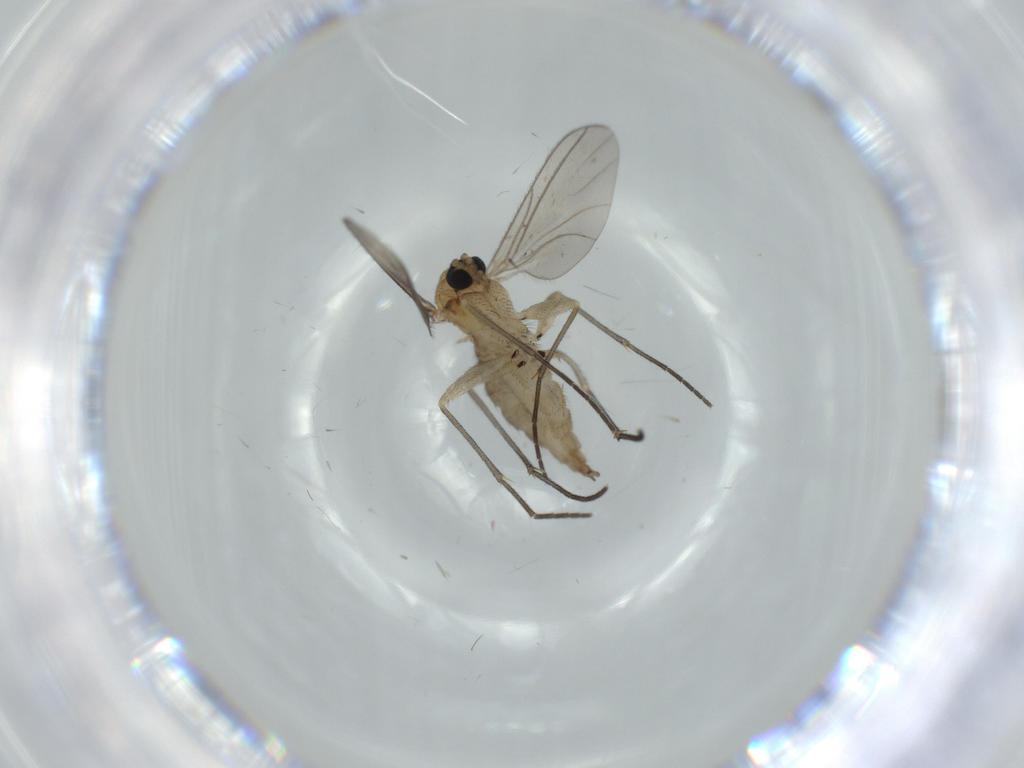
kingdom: Animalia
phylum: Arthropoda
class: Insecta
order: Diptera
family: Sciaridae
